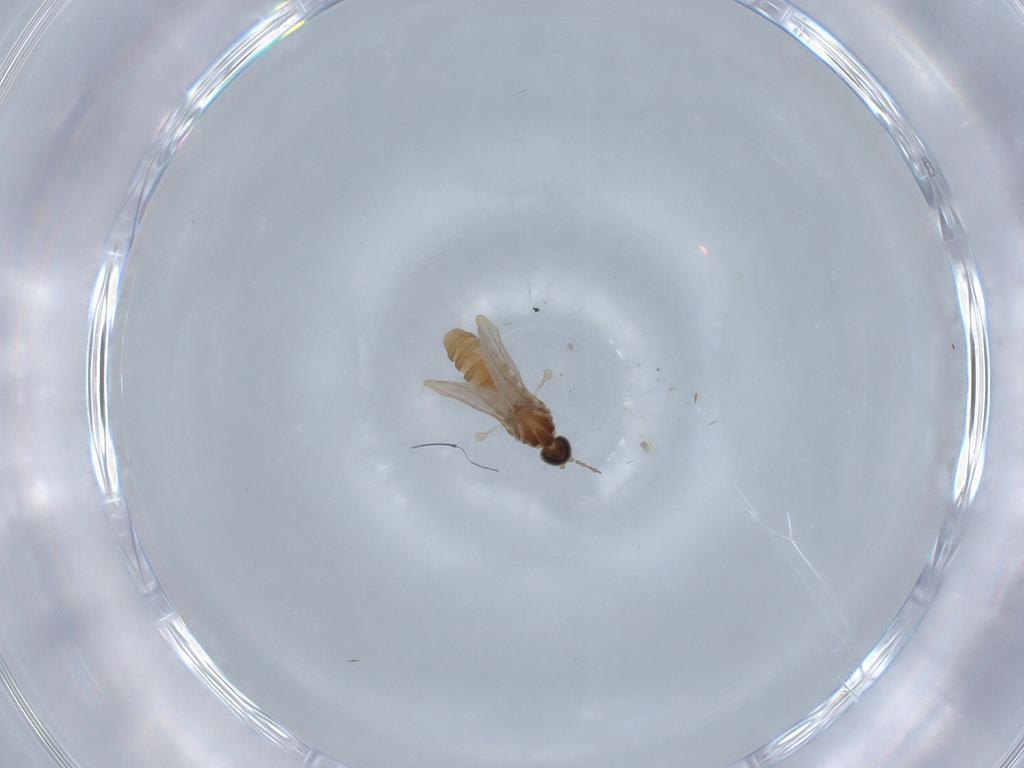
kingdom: Animalia
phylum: Arthropoda
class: Insecta
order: Diptera
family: Cecidomyiidae
